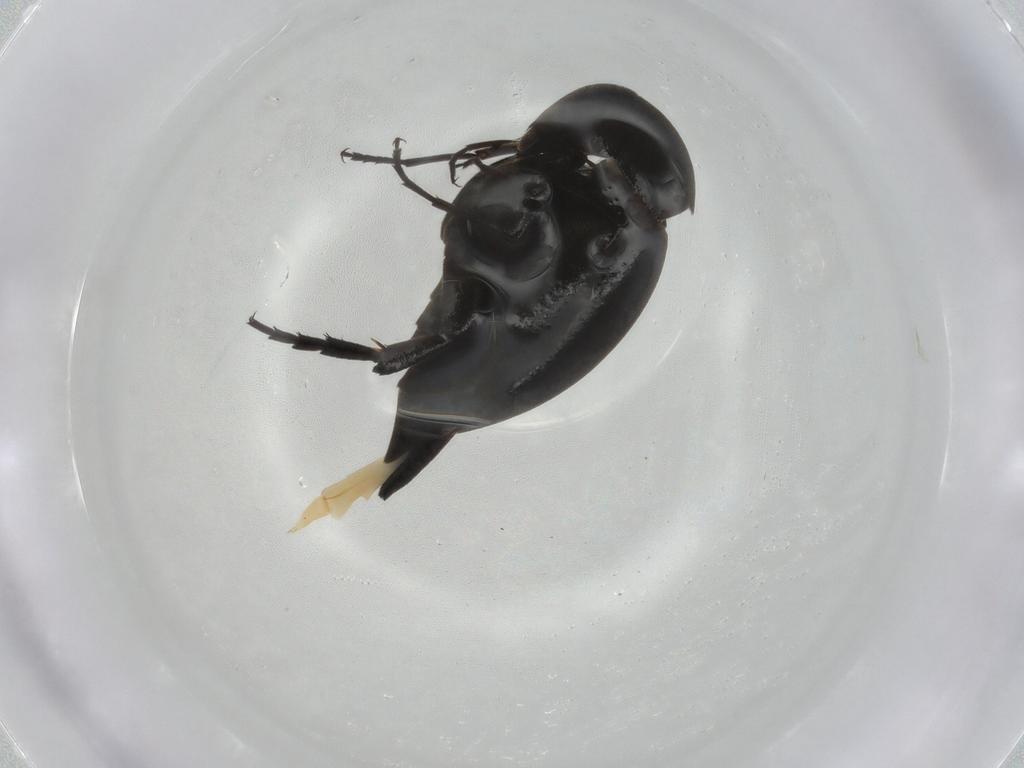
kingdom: Animalia
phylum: Arthropoda
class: Insecta
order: Coleoptera
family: Mordellidae
